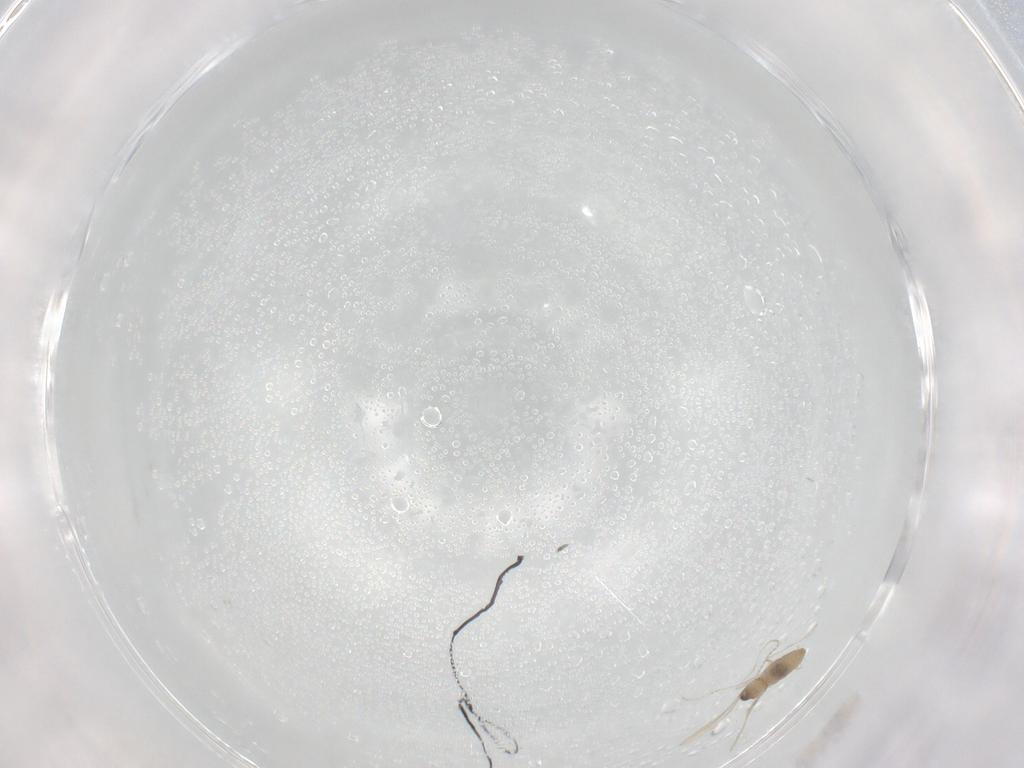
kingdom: Animalia
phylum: Arthropoda
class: Insecta
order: Diptera
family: Cecidomyiidae
